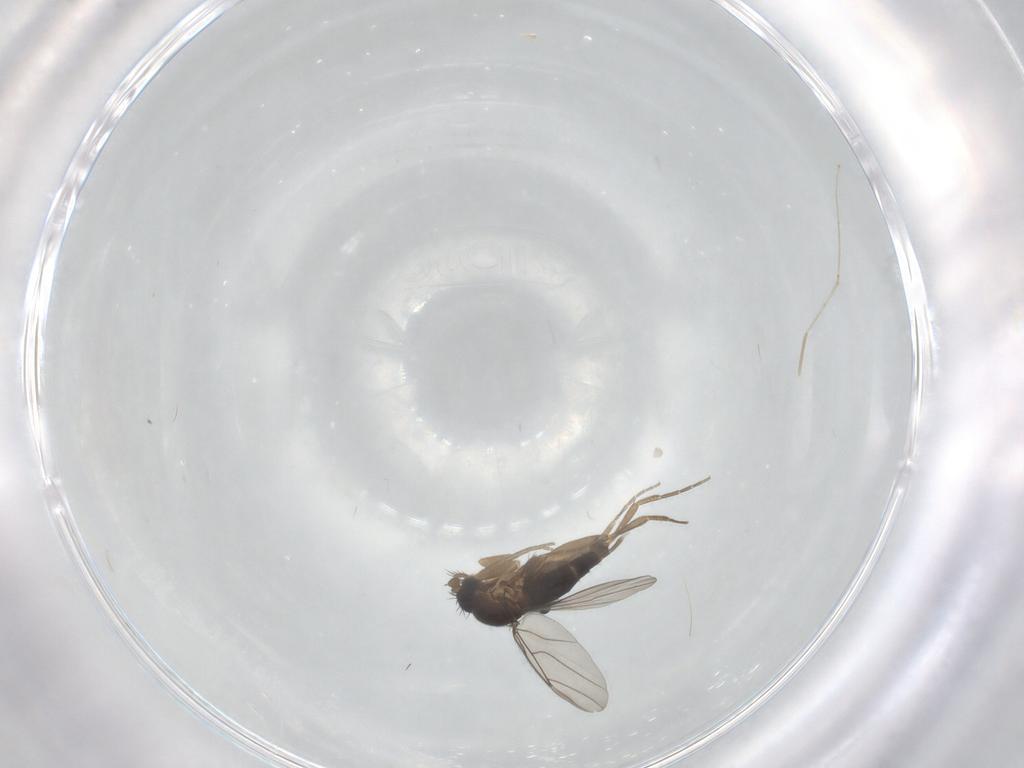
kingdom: Animalia
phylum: Arthropoda
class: Insecta
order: Diptera
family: Phoridae
